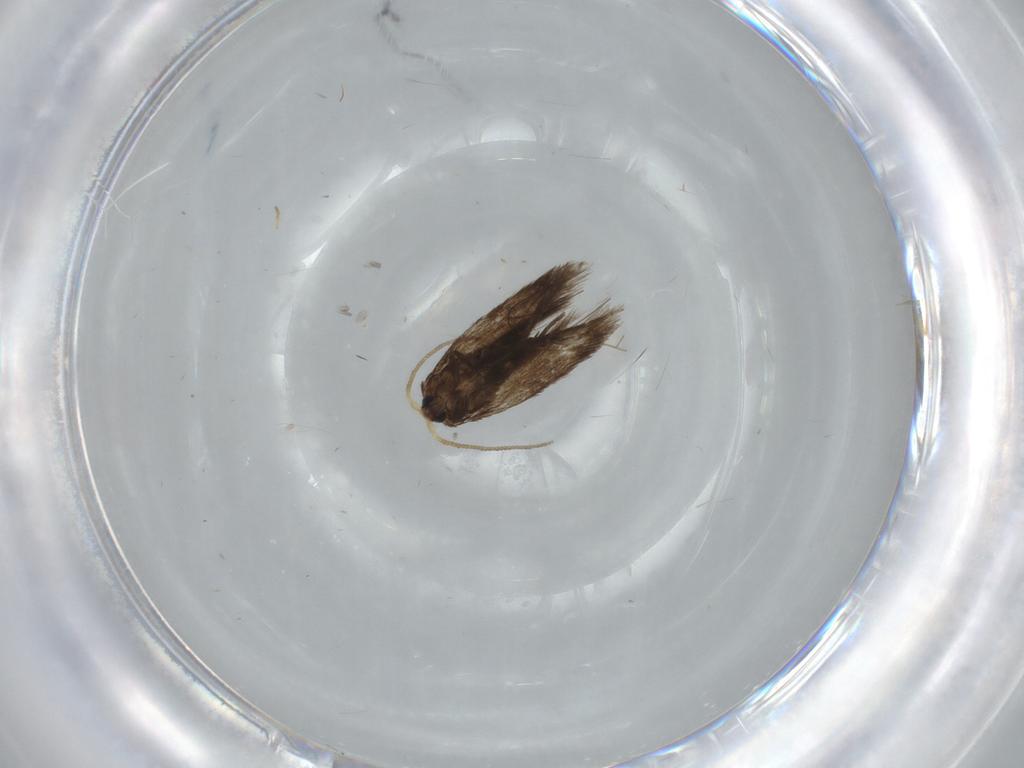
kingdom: Animalia
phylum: Arthropoda
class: Insecta
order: Lepidoptera
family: Nepticulidae
